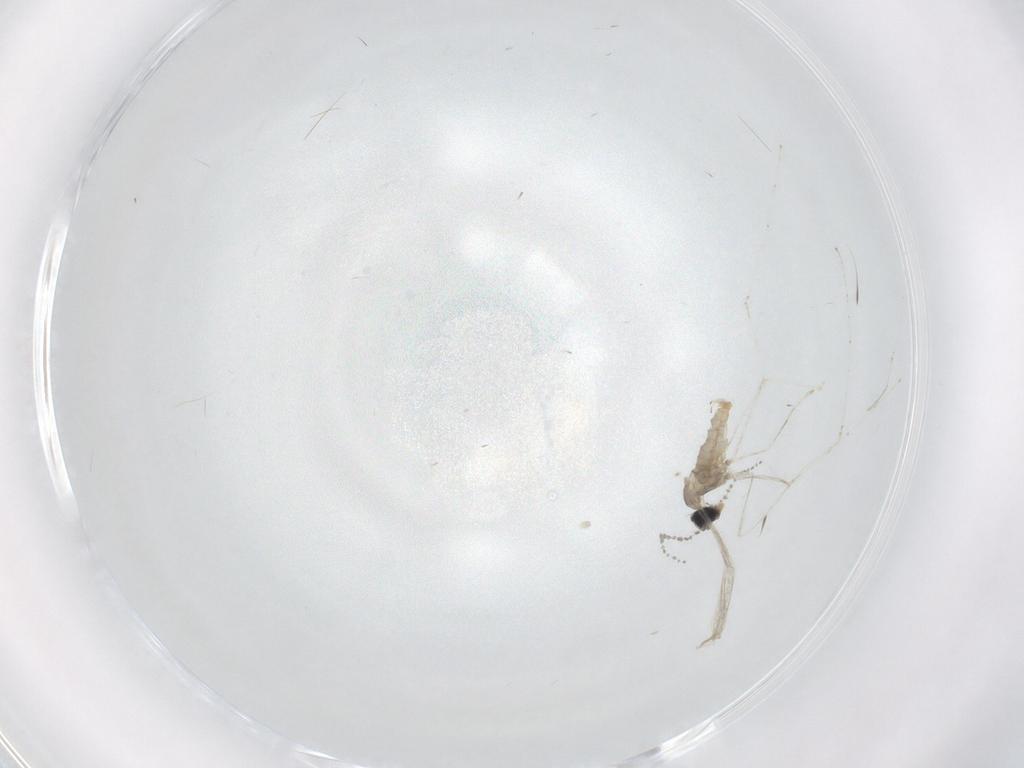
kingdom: Animalia
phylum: Arthropoda
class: Insecta
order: Diptera
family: Cecidomyiidae
